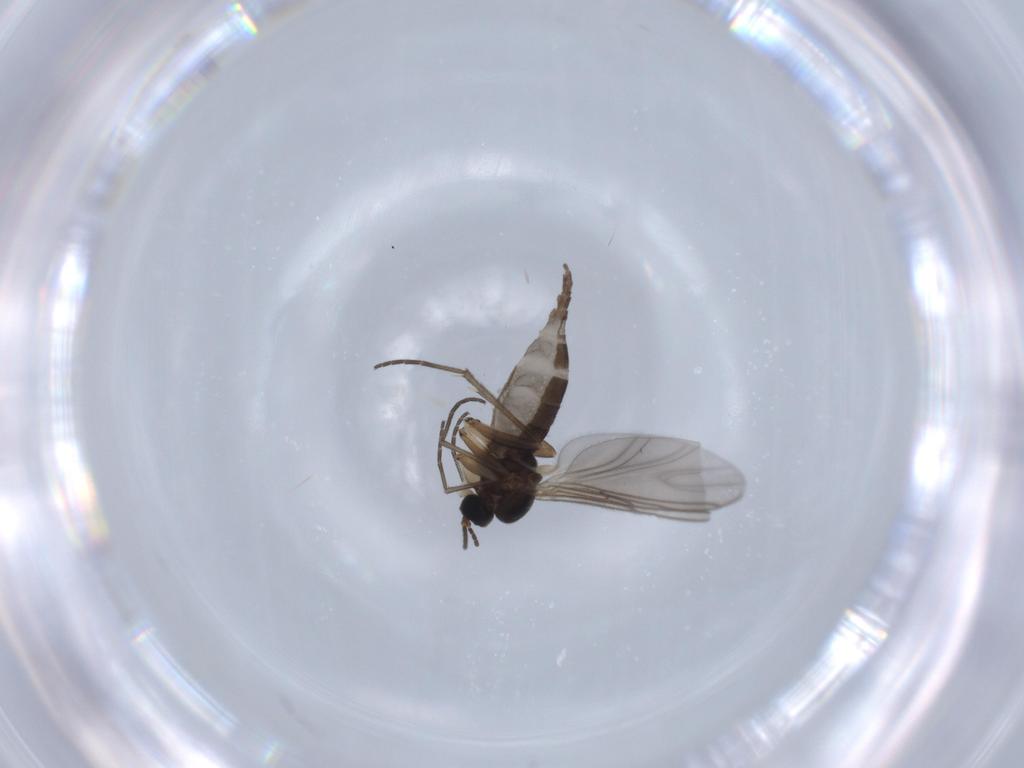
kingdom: Animalia
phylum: Arthropoda
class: Insecta
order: Diptera
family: Sciaridae
